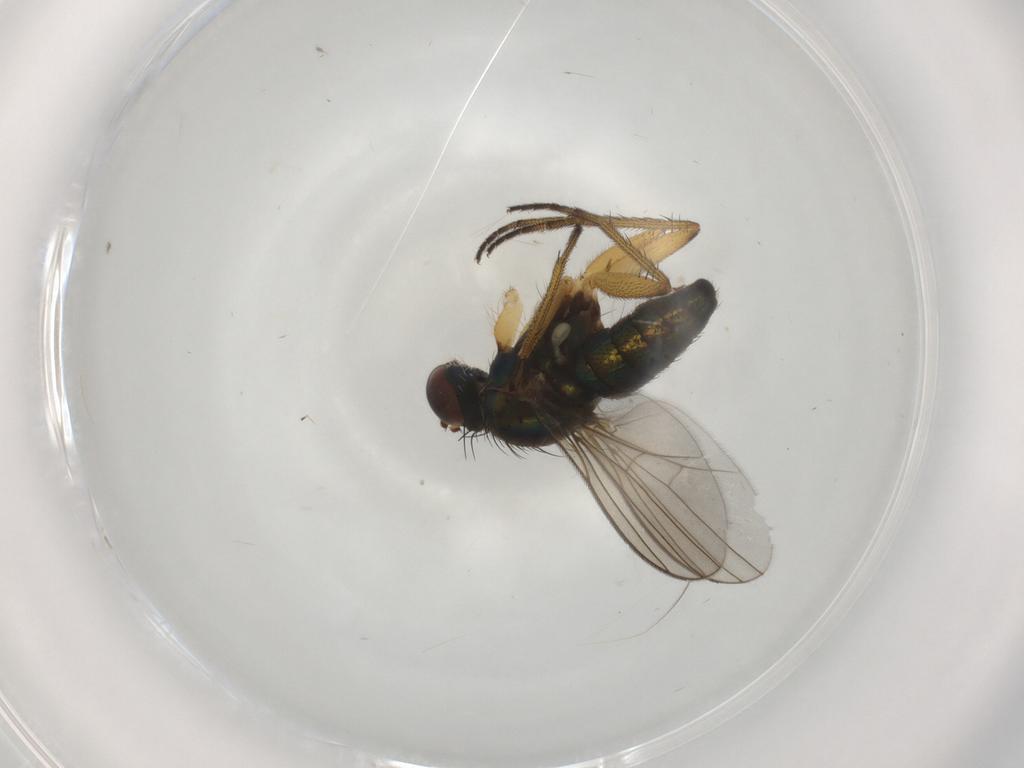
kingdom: Animalia
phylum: Arthropoda
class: Insecta
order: Diptera
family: Dolichopodidae
